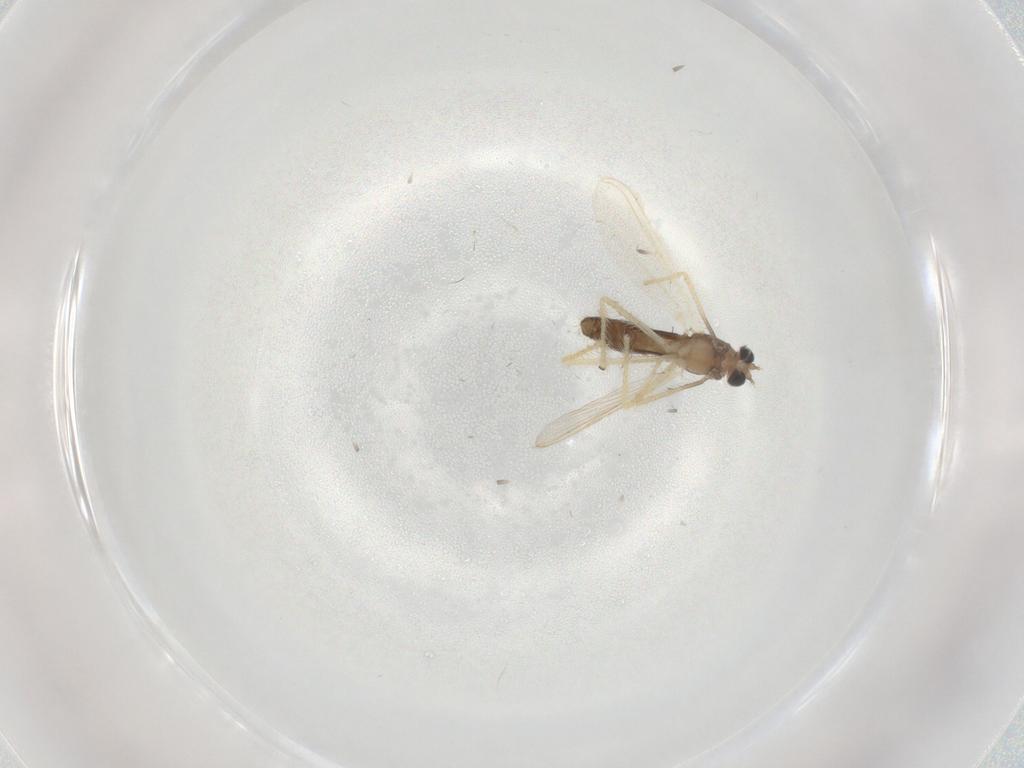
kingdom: Animalia
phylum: Arthropoda
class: Insecta
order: Diptera
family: Chironomidae
